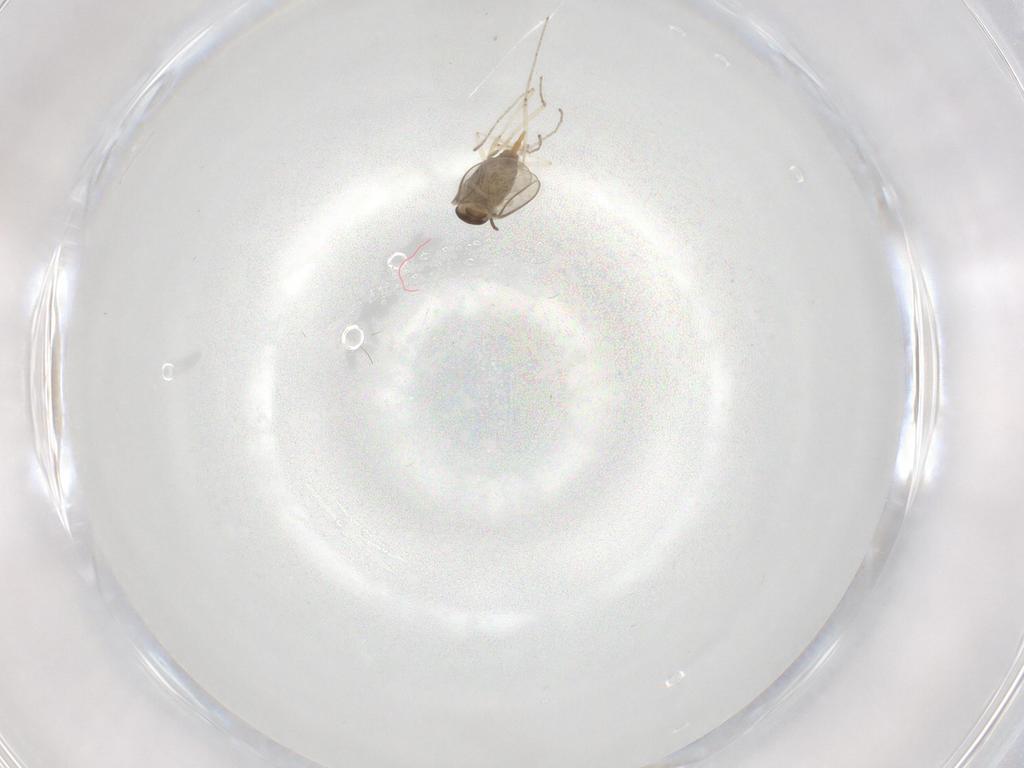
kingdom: Animalia
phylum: Arthropoda
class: Insecta
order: Diptera
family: Cecidomyiidae
